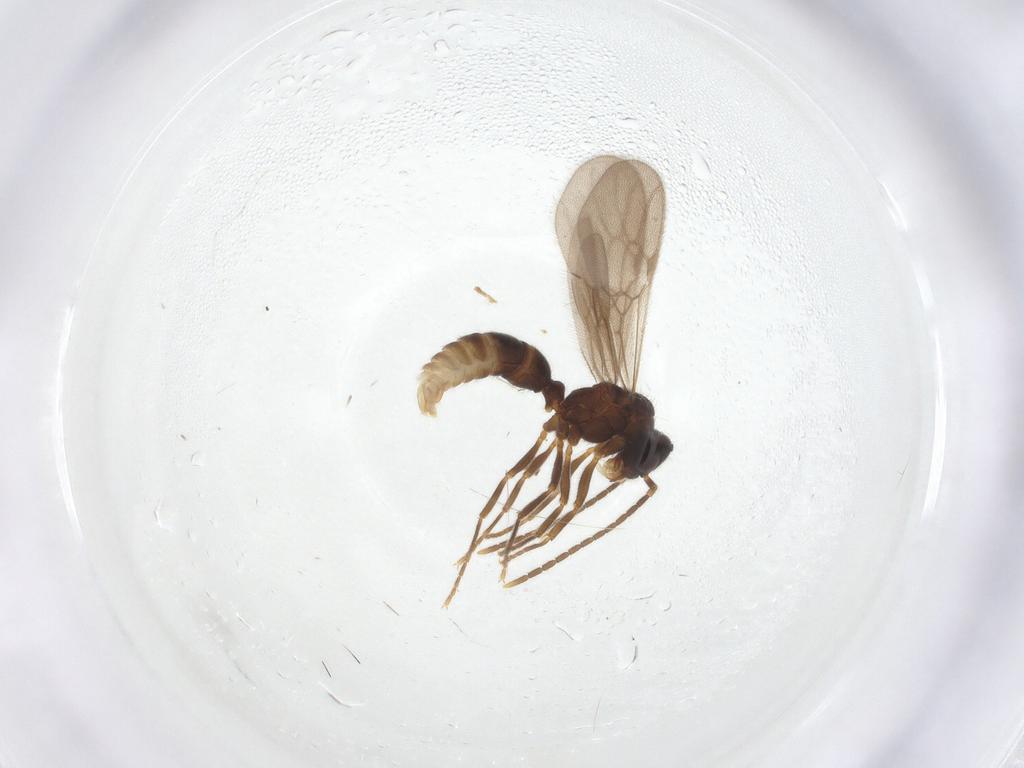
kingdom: Animalia
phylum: Arthropoda
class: Insecta
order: Hymenoptera
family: Formicidae
